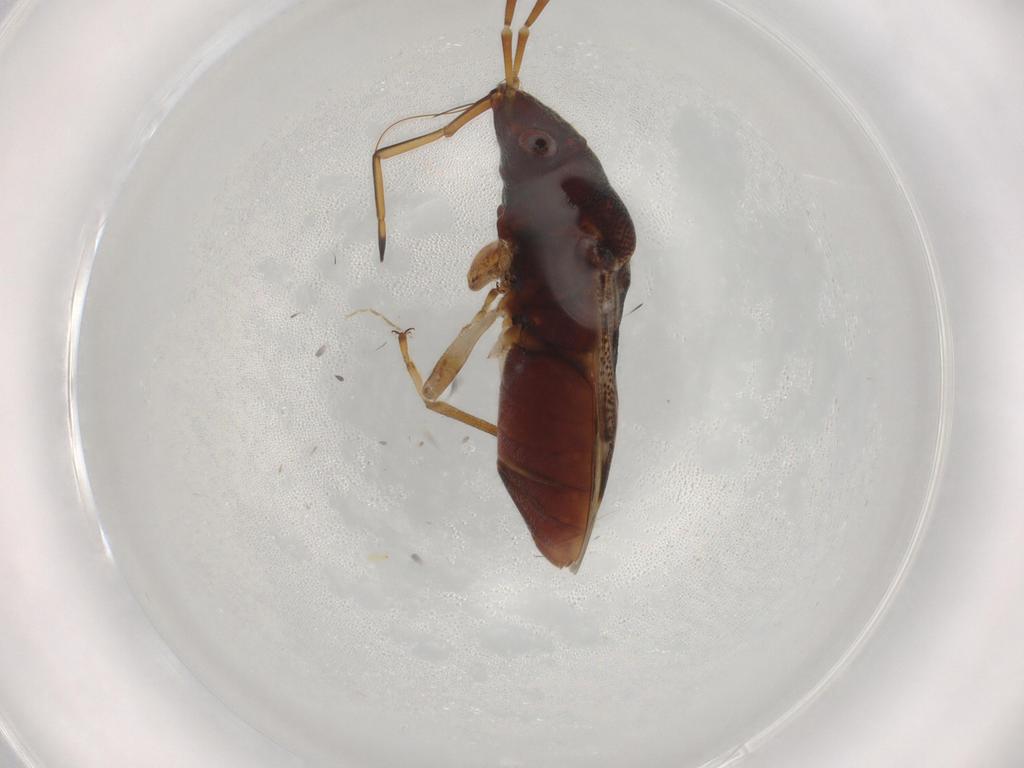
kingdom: Animalia
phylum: Arthropoda
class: Insecta
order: Hemiptera
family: Rhyparochromidae
